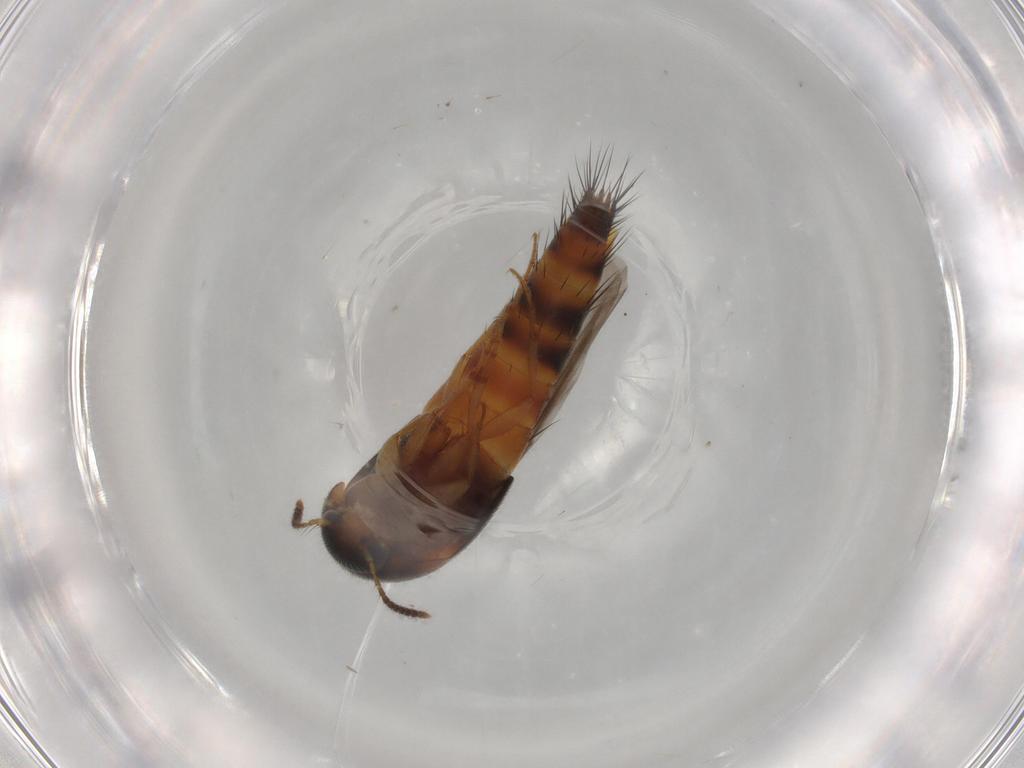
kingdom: Animalia
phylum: Arthropoda
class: Insecta
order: Coleoptera
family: Staphylinidae
